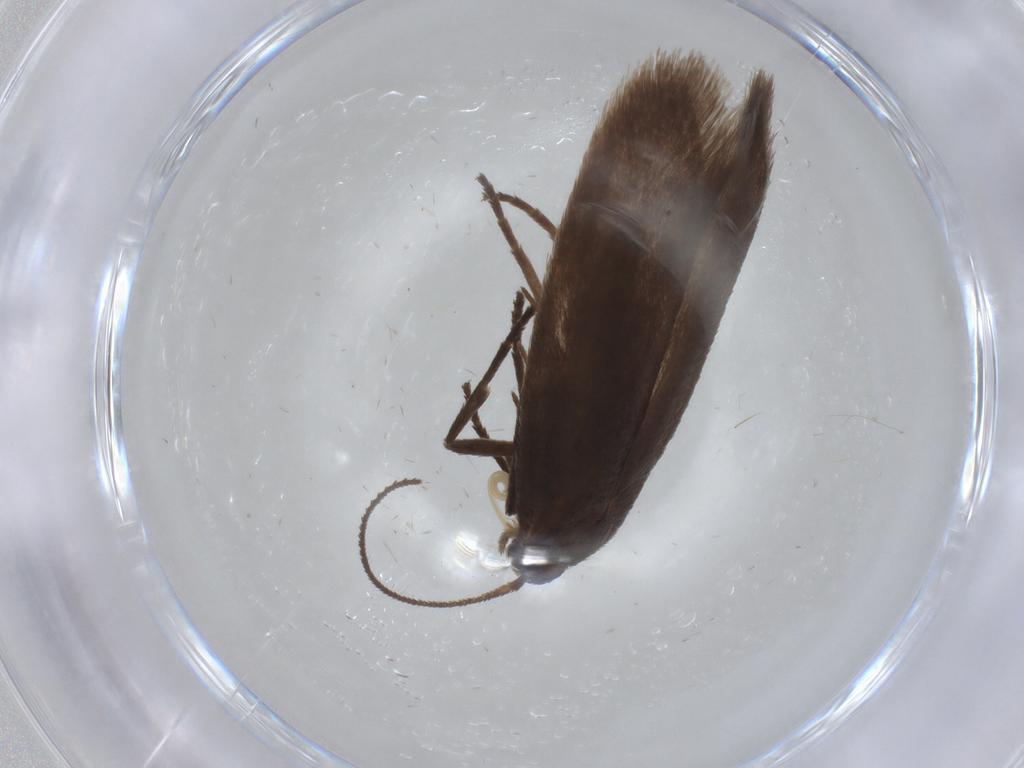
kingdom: Animalia
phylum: Arthropoda
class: Insecta
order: Lepidoptera
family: Limacodidae
